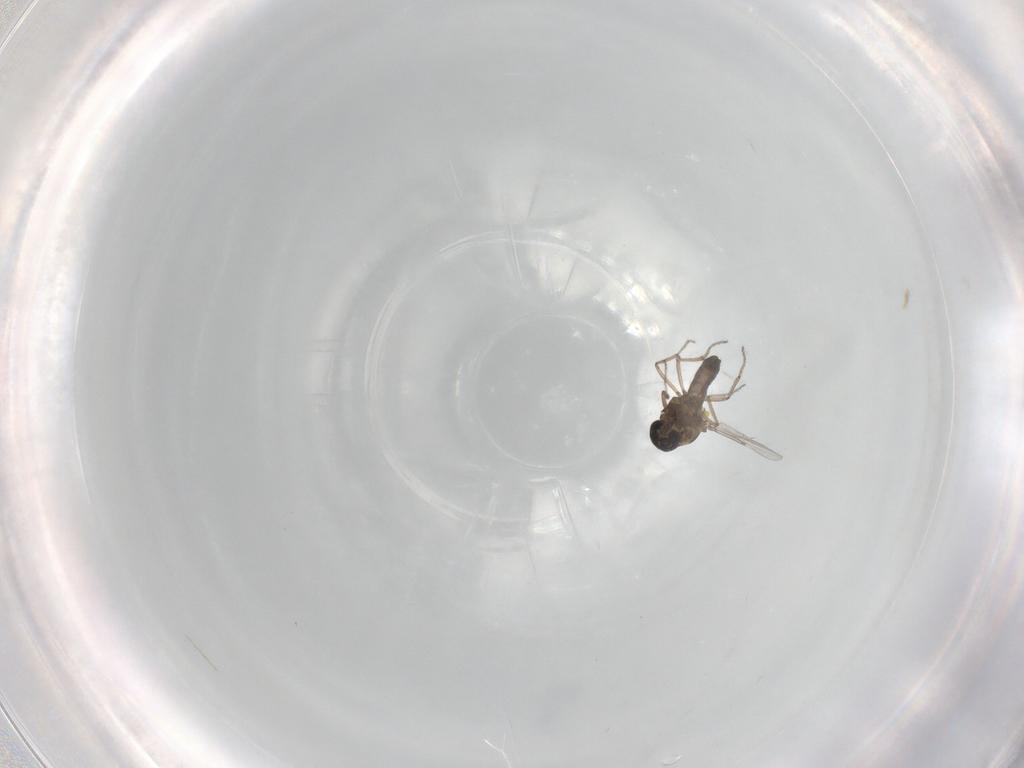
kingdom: Animalia
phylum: Arthropoda
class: Insecta
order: Diptera
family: Ceratopogonidae
